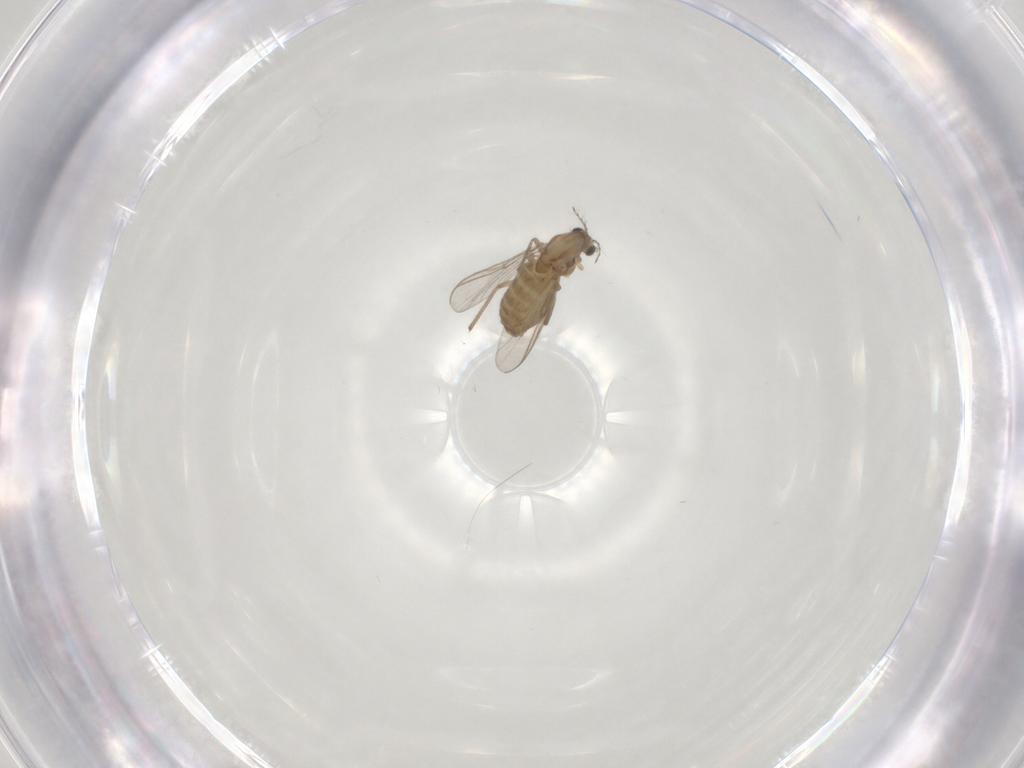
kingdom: Animalia
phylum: Arthropoda
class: Insecta
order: Diptera
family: Chironomidae
